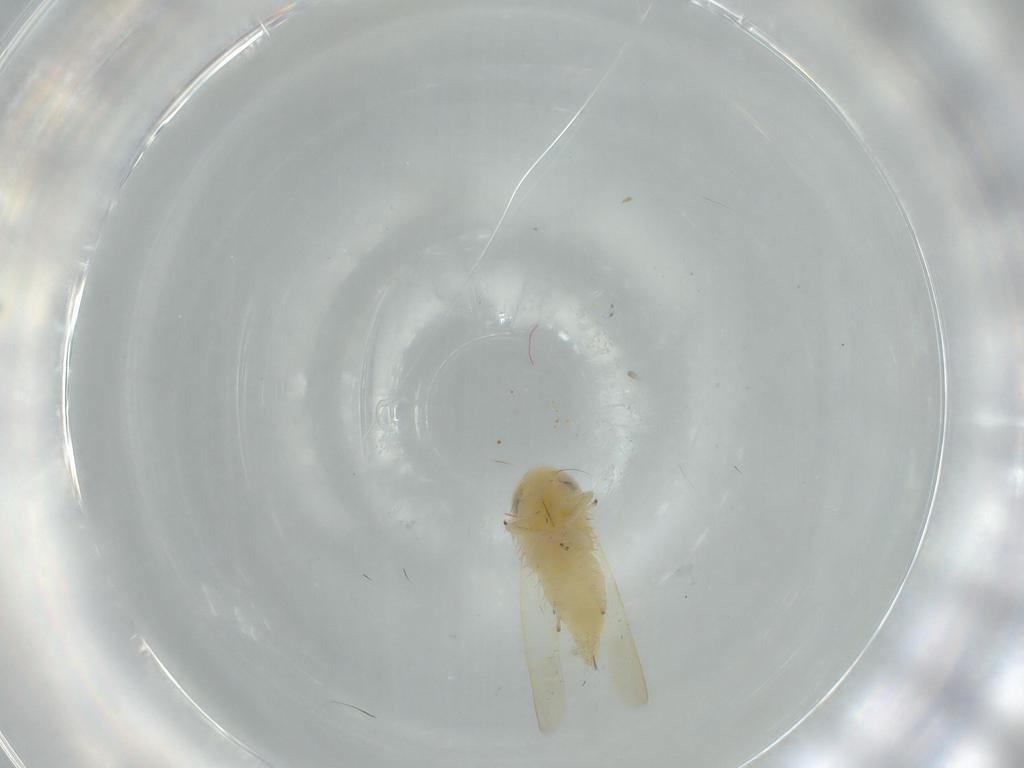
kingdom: Animalia
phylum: Arthropoda
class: Insecta
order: Hemiptera
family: Cicadellidae
